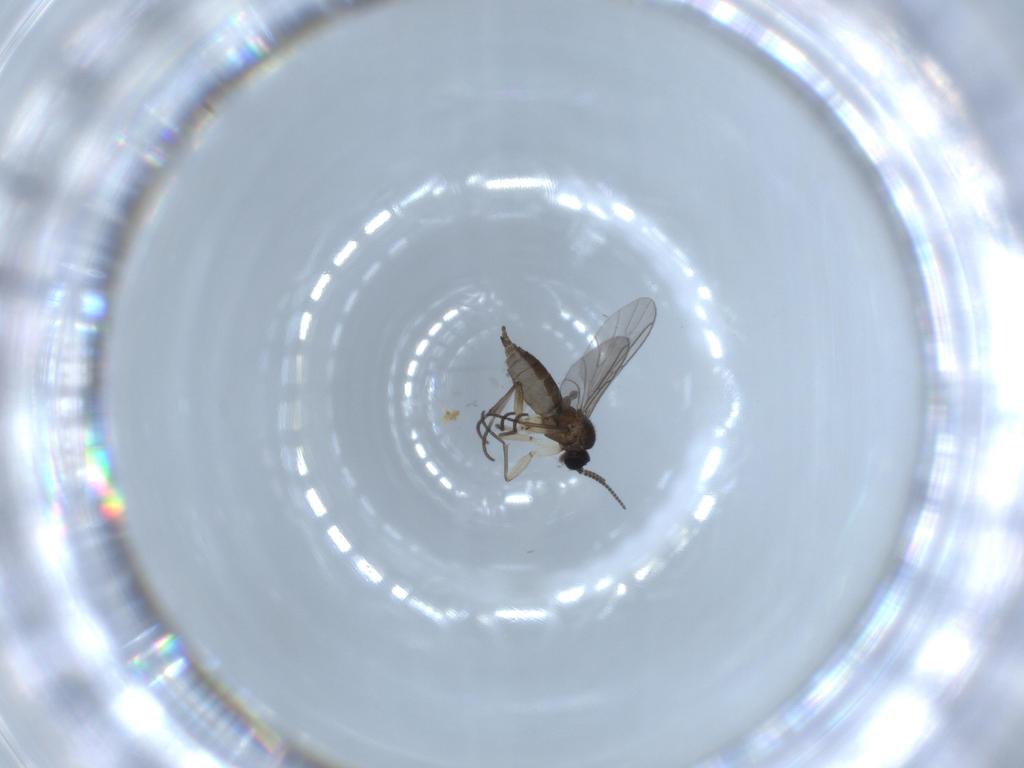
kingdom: Animalia
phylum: Arthropoda
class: Insecta
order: Diptera
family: Sciaridae
